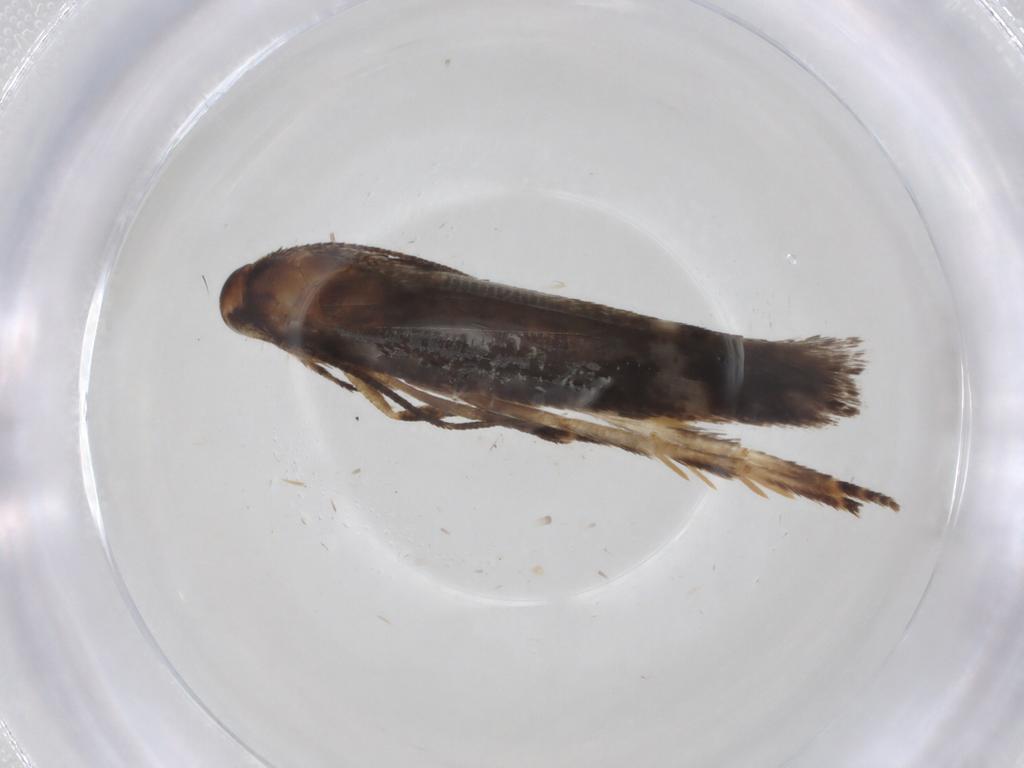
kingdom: Animalia
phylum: Arthropoda
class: Insecta
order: Lepidoptera
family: Momphidae
